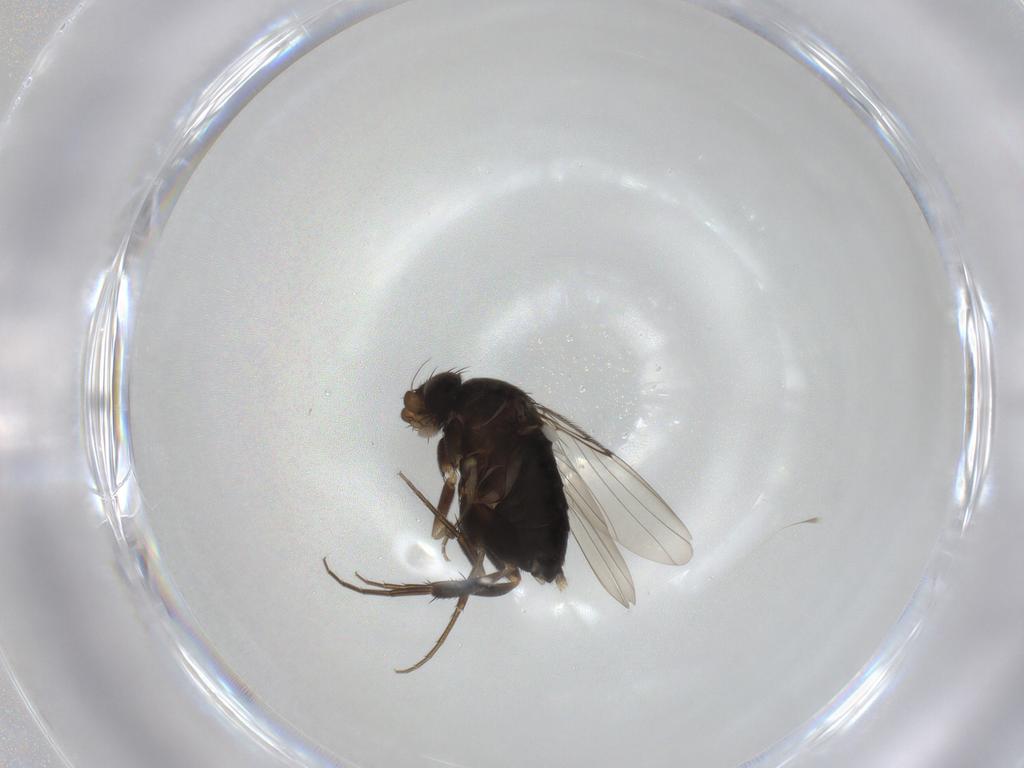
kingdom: Animalia
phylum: Arthropoda
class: Insecta
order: Diptera
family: Phoridae
